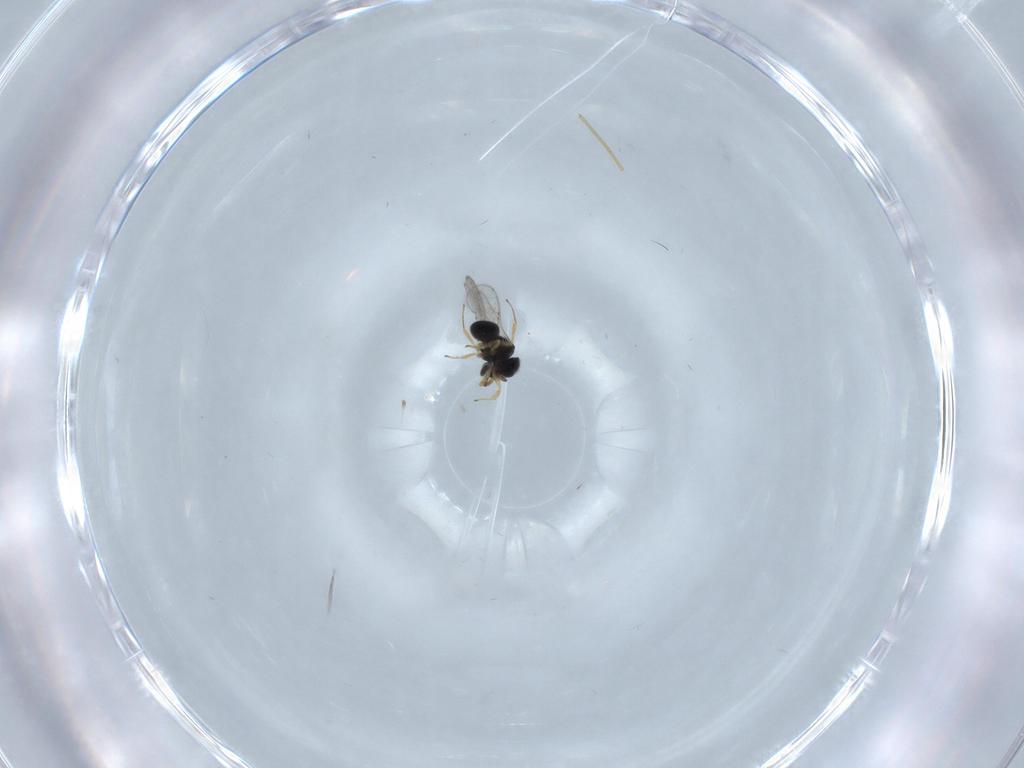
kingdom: Animalia
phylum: Arthropoda
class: Insecta
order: Hymenoptera
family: Scelionidae
